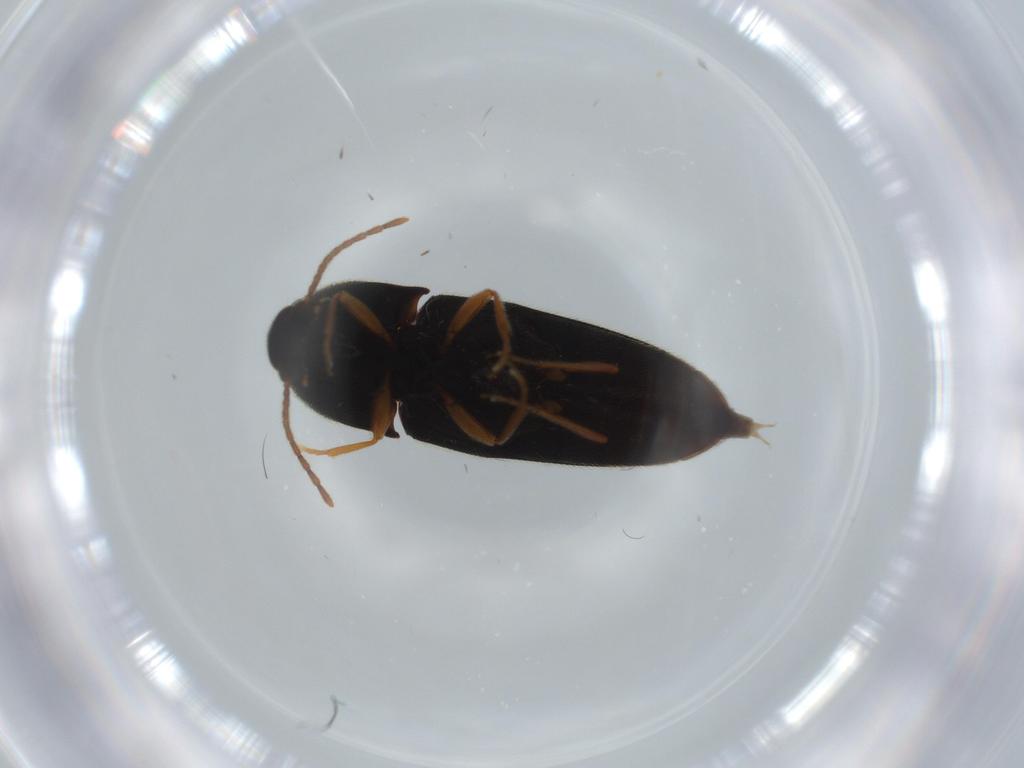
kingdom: Animalia
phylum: Arthropoda
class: Insecta
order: Coleoptera
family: Elateridae
